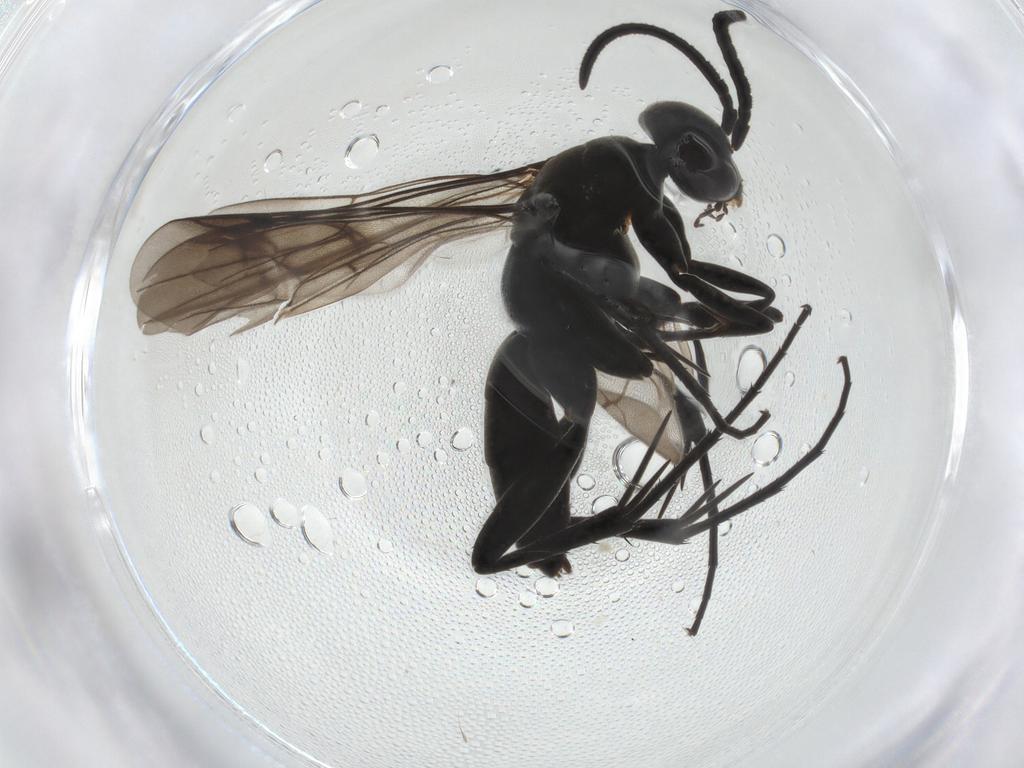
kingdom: Animalia
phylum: Arthropoda
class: Insecta
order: Hymenoptera
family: Pompilidae
